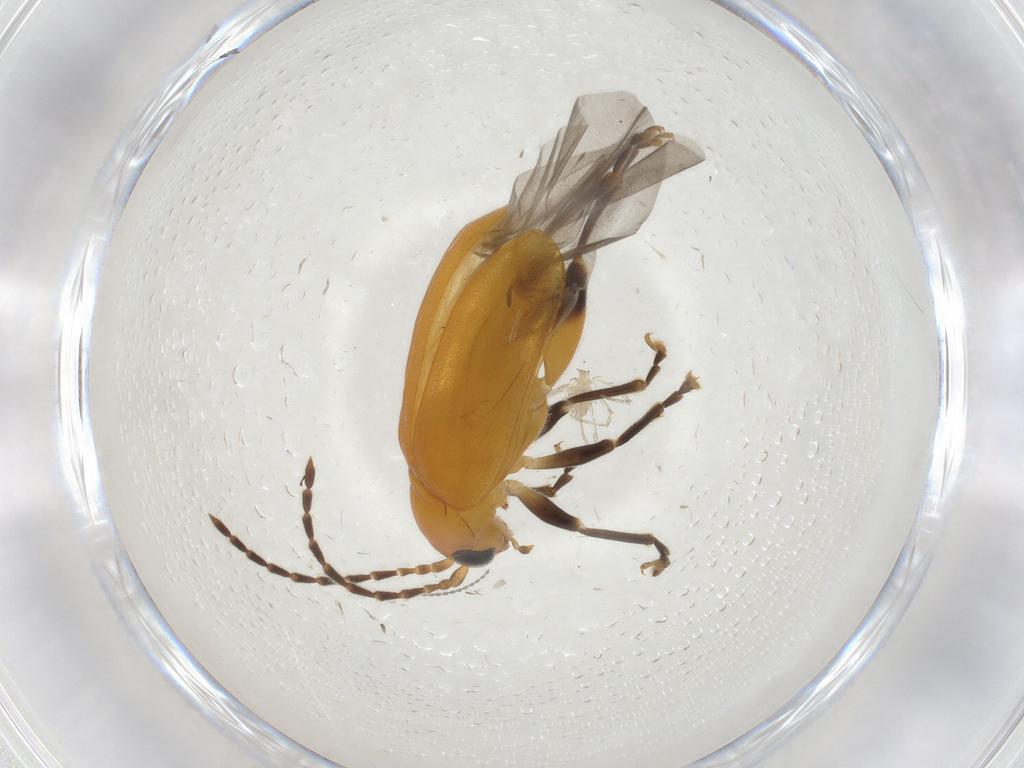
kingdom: Animalia
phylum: Arthropoda
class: Insecta
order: Coleoptera
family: Chrysomelidae
